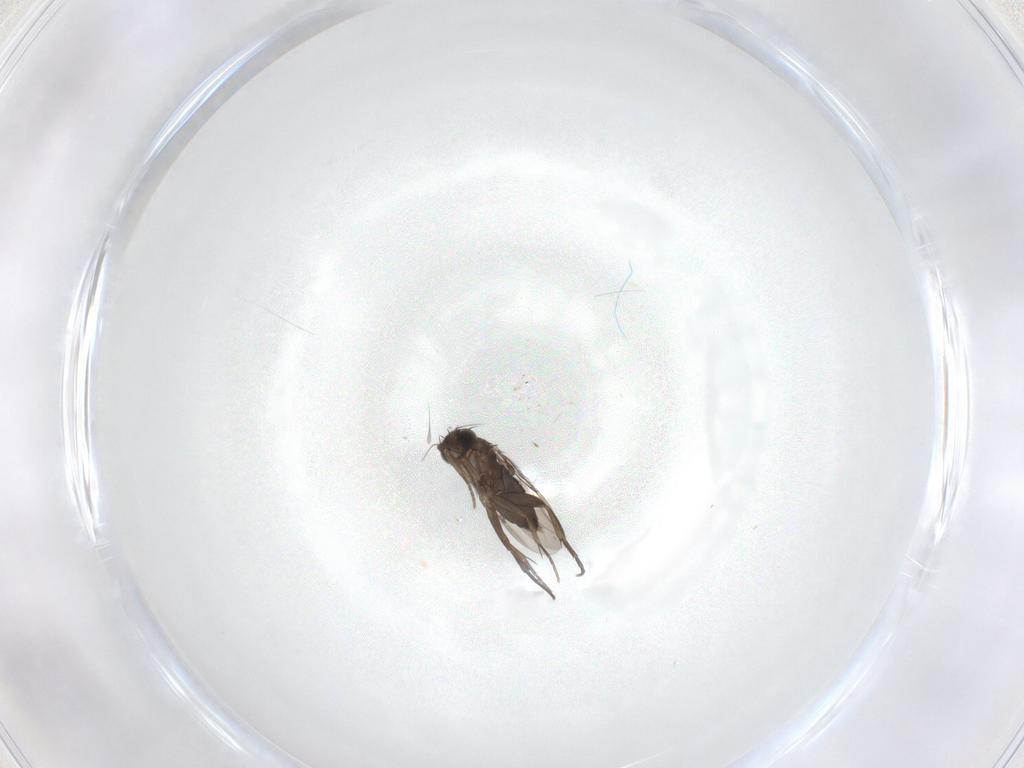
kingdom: Animalia
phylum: Arthropoda
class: Insecta
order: Diptera
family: Phoridae
